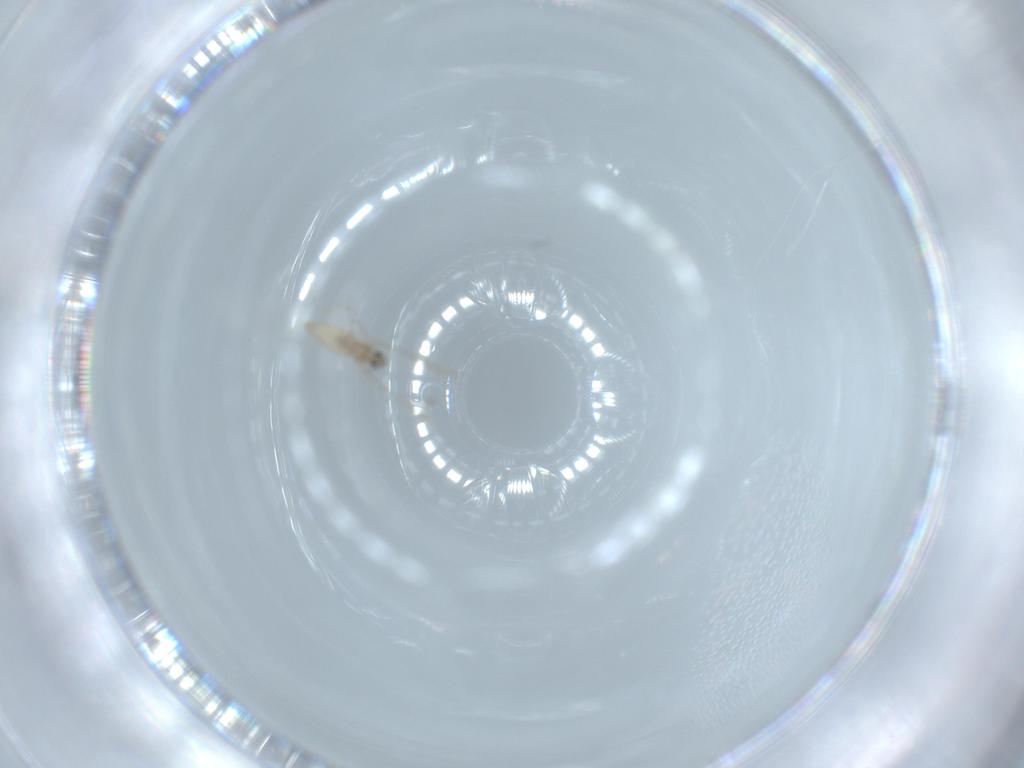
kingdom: Animalia
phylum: Arthropoda
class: Insecta
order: Diptera
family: Cecidomyiidae
